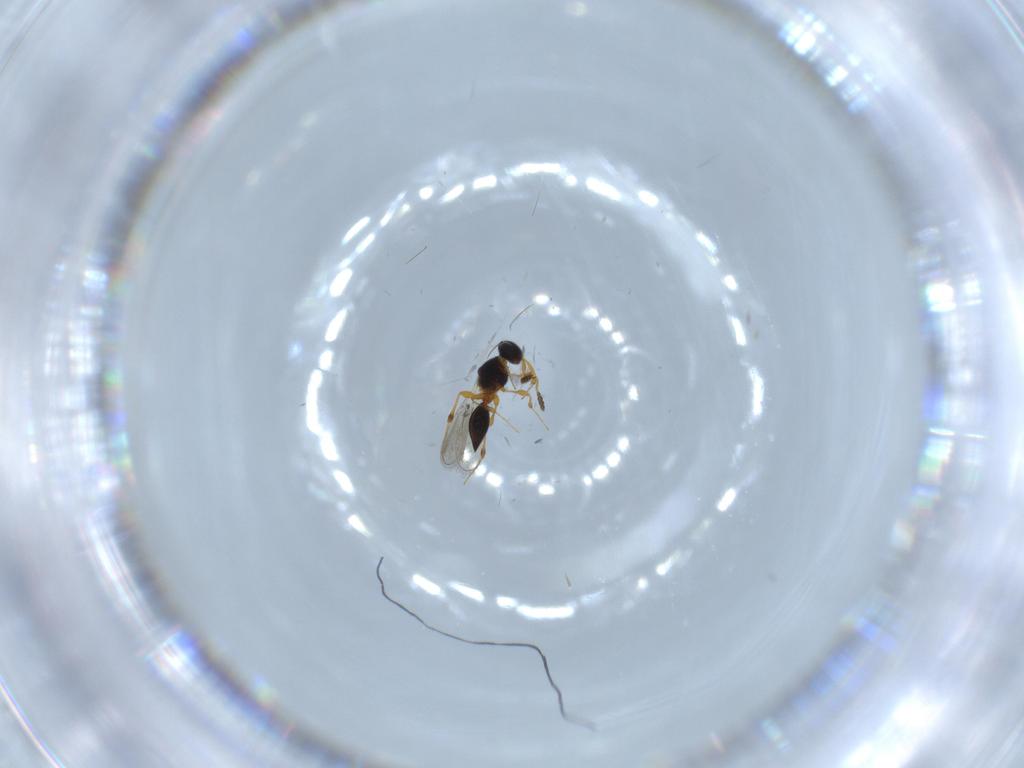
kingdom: Animalia
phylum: Arthropoda
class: Insecta
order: Hymenoptera
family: Platygastridae
